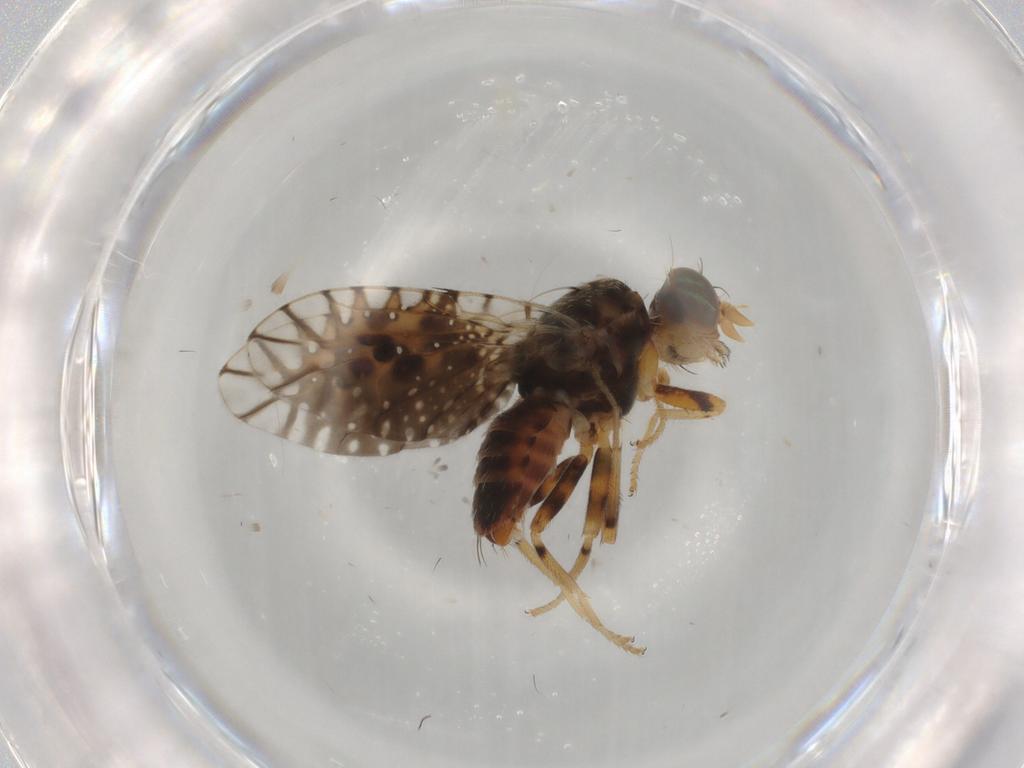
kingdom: Animalia
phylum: Arthropoda
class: Insecta
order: Diptera
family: Tephritidae
